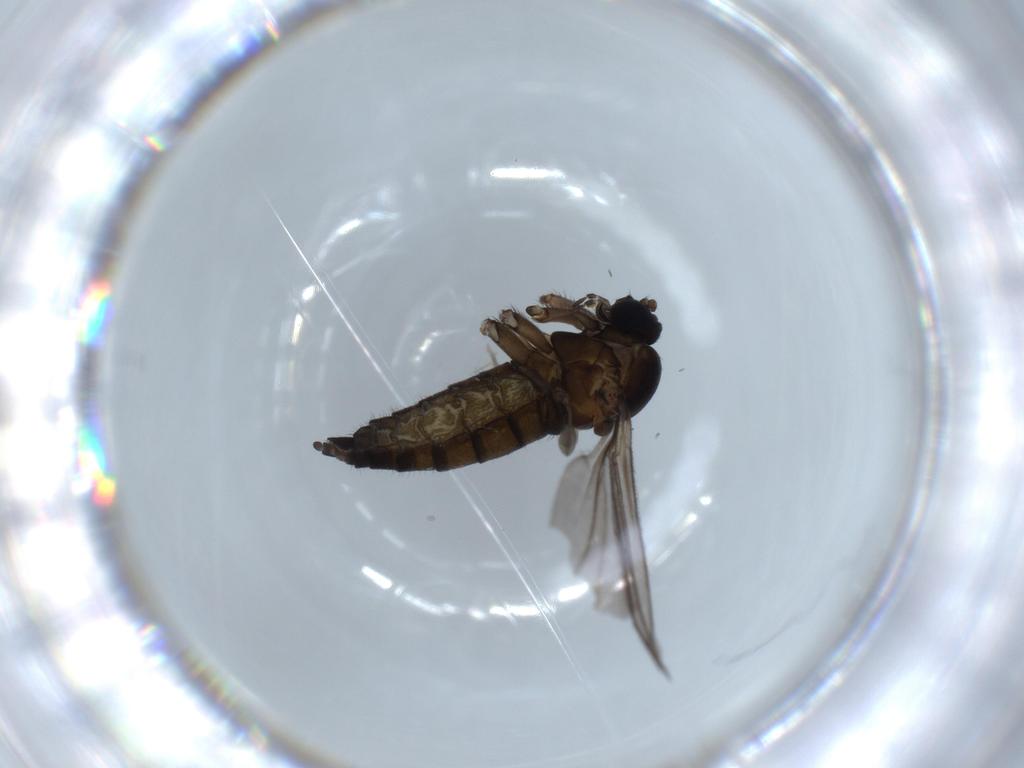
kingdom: Animalia
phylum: Arthropoda
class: Insecta
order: Diptera
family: Sciaridae
